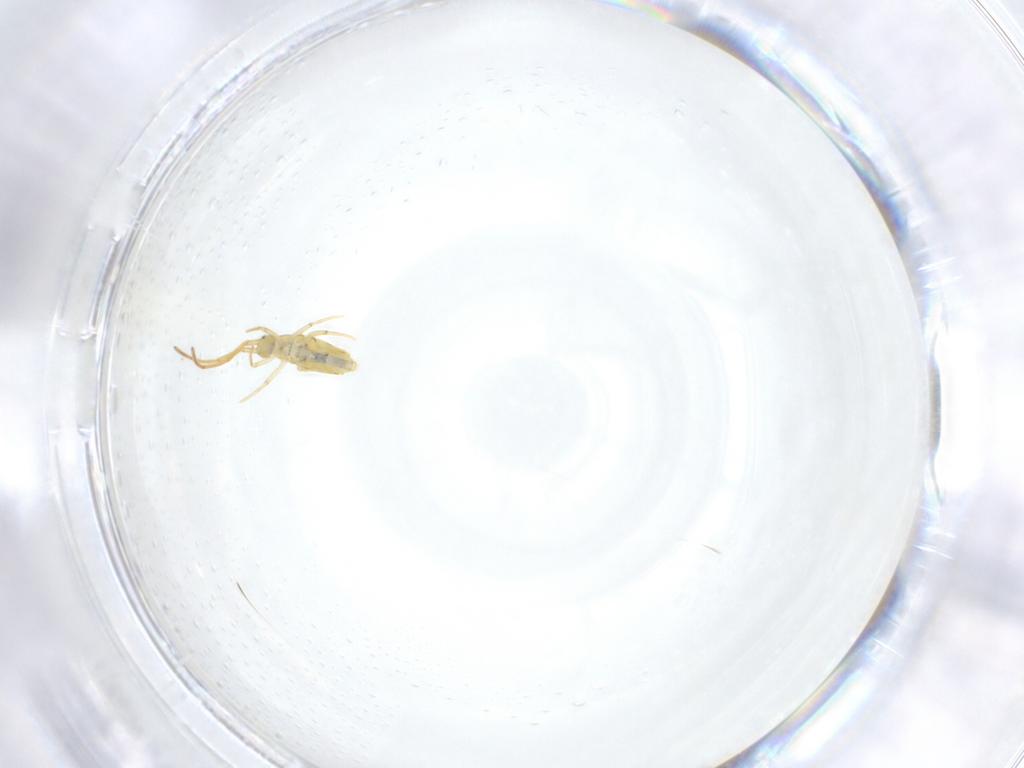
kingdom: Animalia
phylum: Arthropoda
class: Collembola
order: Entomobryomorpha
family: Entomobryidae
